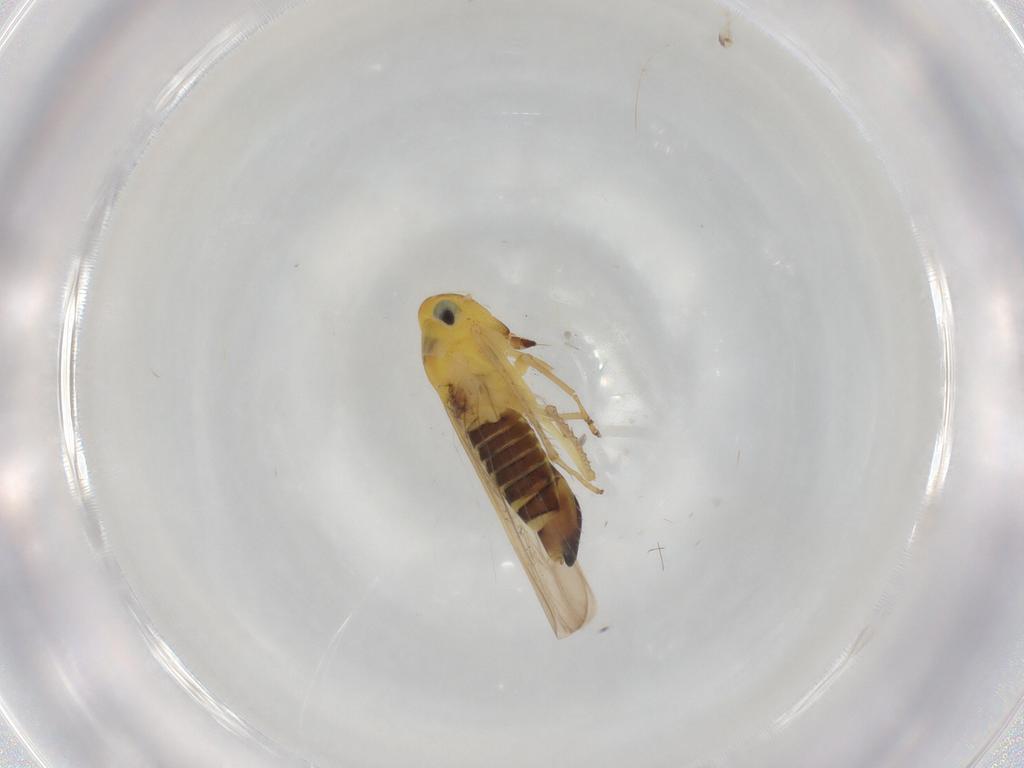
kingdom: Animalia
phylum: Arthropoda
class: Insecta
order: Hemiptera
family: Cicadellidae
